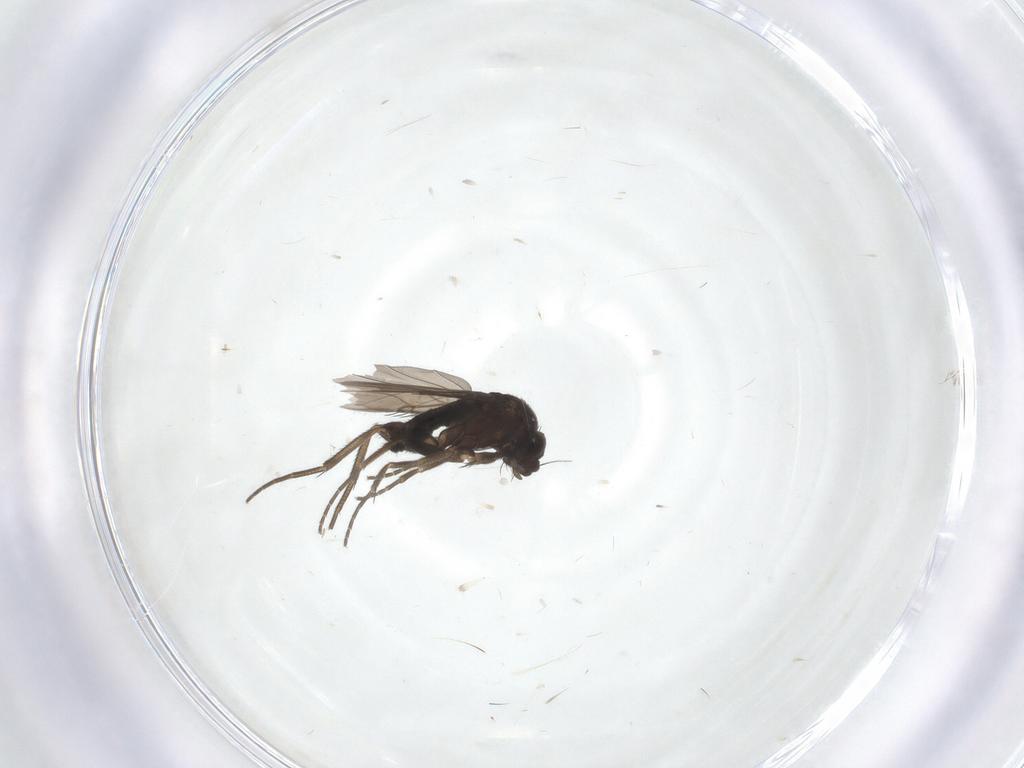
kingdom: Animalia
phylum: Arthropoda
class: Insecta
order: Diptera
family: Phoridae
